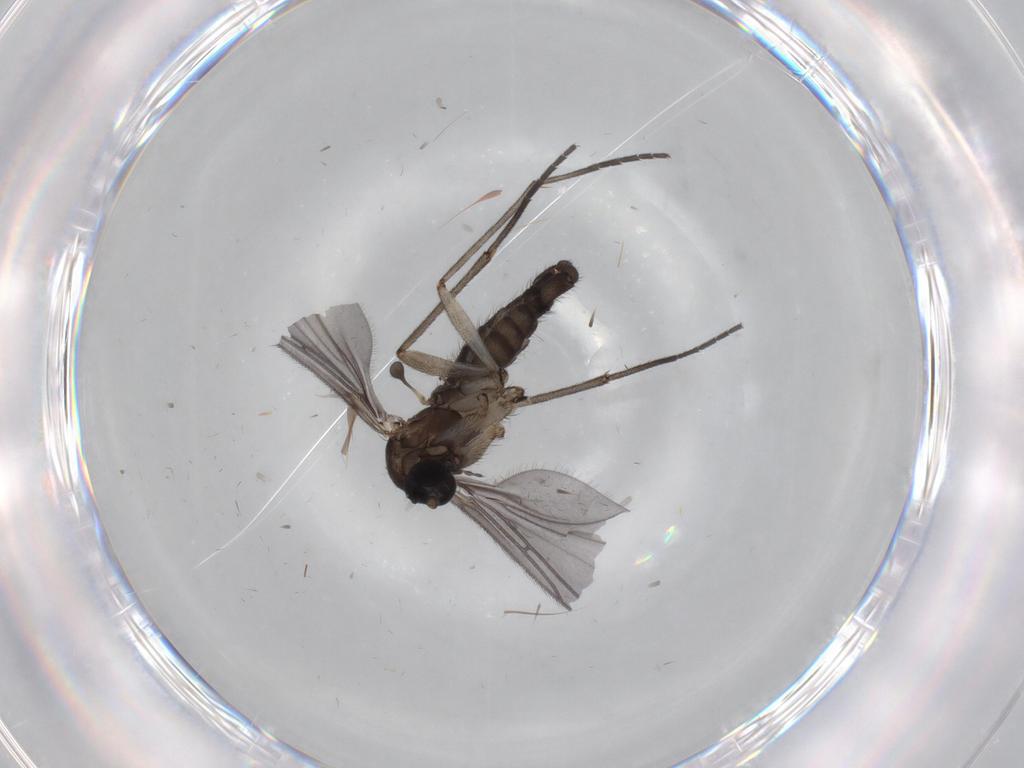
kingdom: Animalia
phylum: Arthropoda
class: Insecta
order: Diptera
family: Sciaridae
